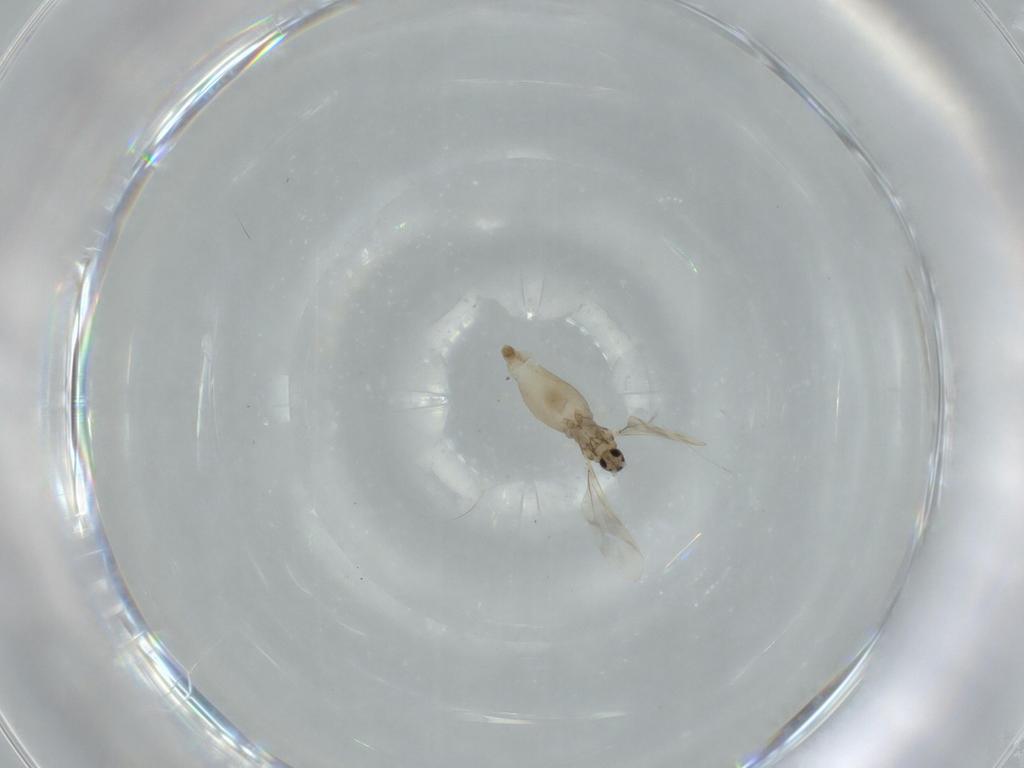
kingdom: Animalia
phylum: Arthropoda
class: Insecta
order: Diptera
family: Cecidomyiidae
